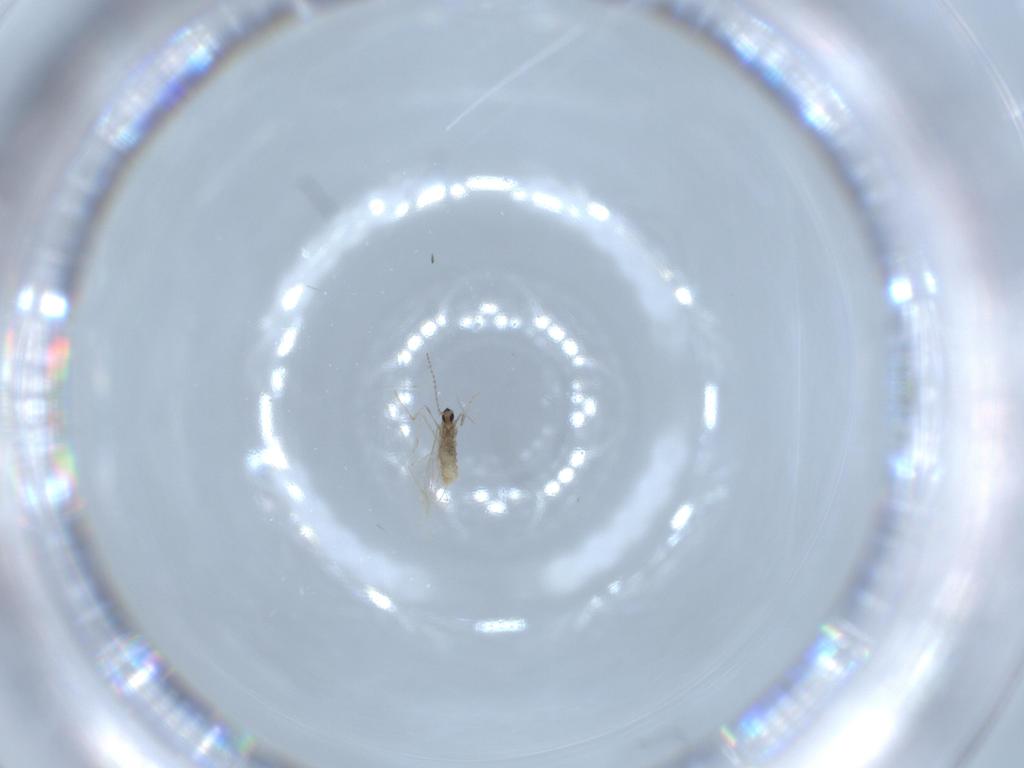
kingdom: Animalia
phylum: Arthropoda
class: Insecta
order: Diptera
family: Cecidomyiidae
